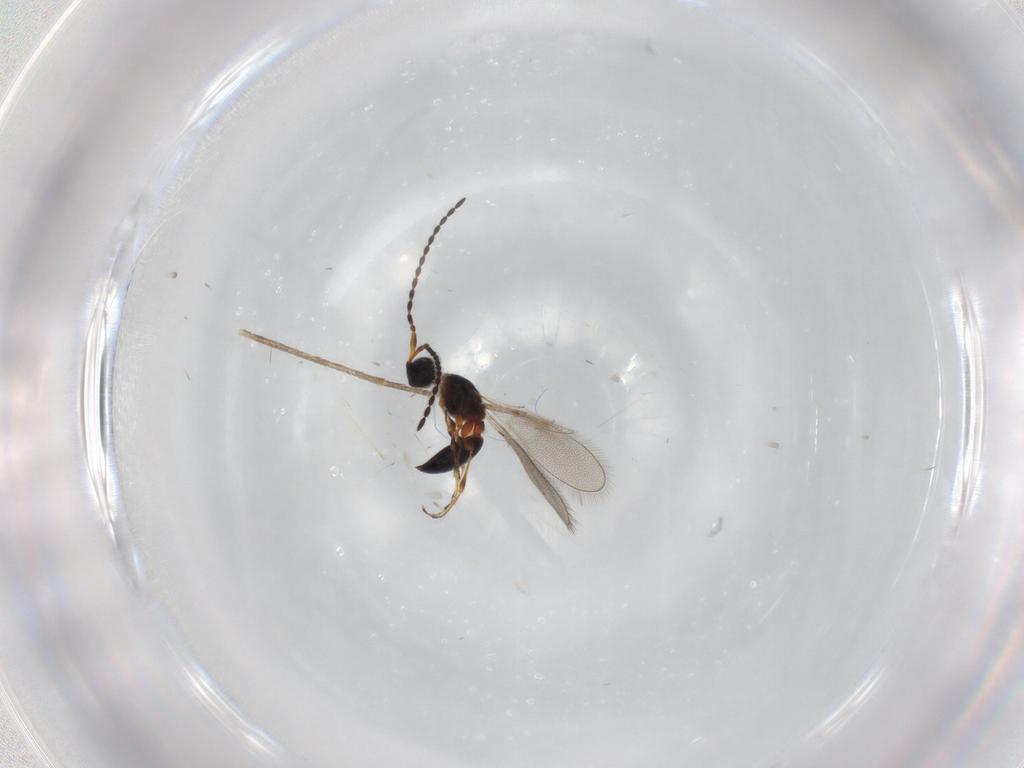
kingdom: Animalia
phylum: Arthropoda
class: Insecta
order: Hymenoptera
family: Diapriidae
